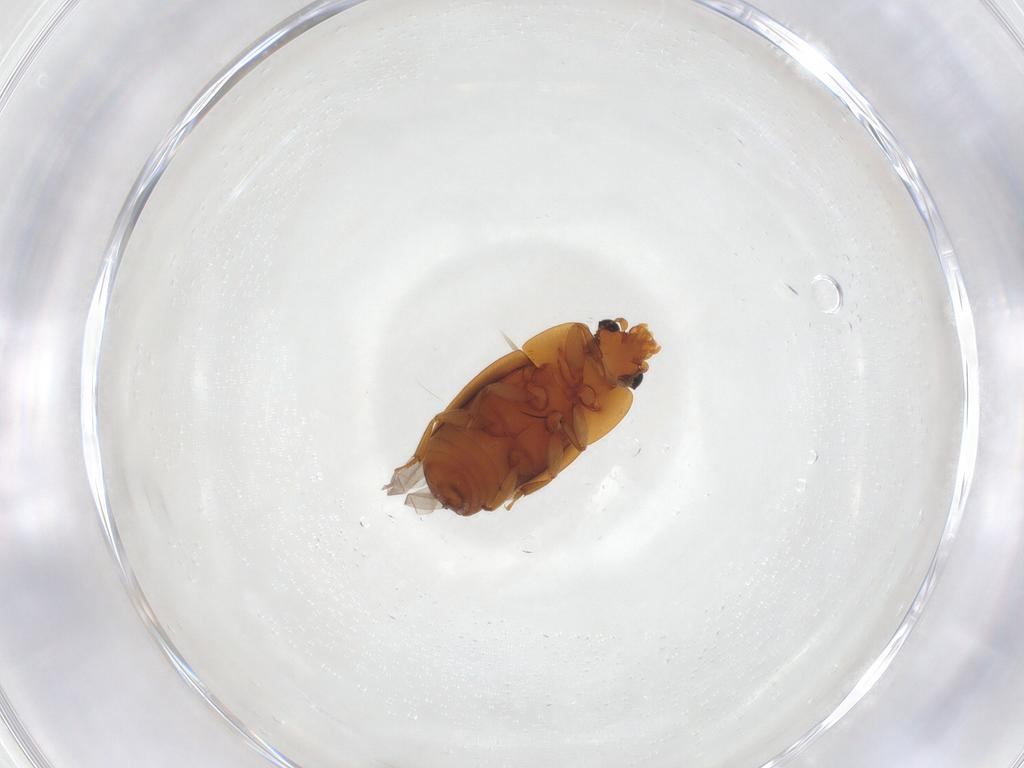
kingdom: Animalia
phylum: Arthropoda
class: Insecta
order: Coleoptera
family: Nitidulidae
